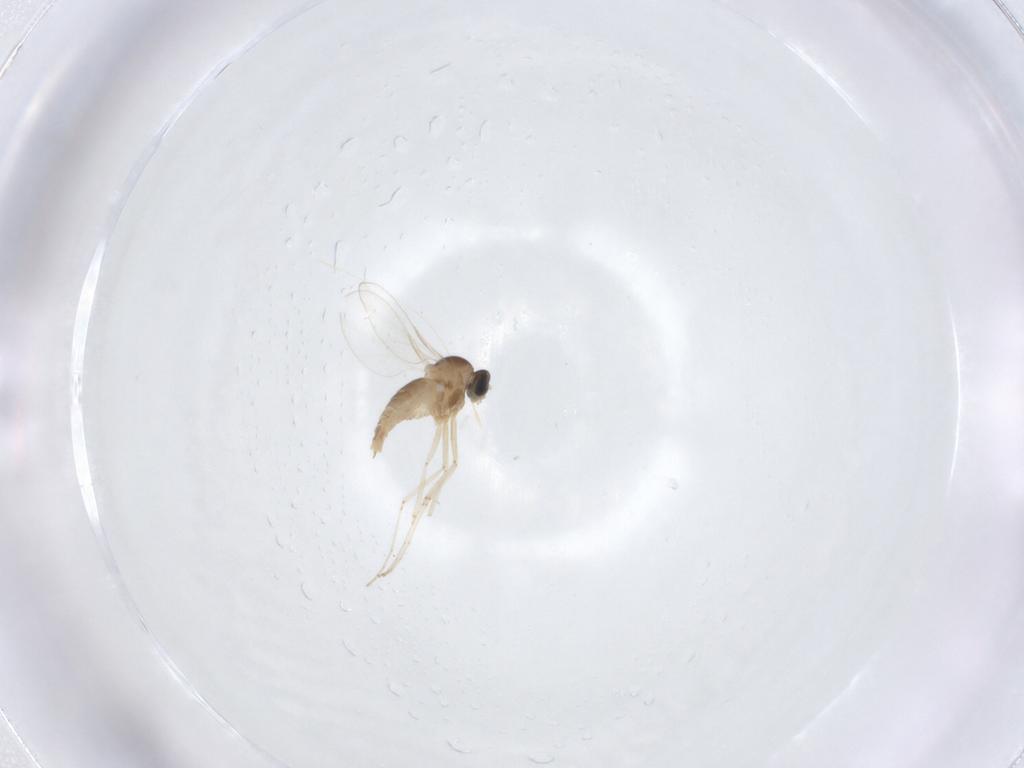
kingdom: Animalia
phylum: Arthropoda
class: Insecta
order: Diptera
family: Cecidomyiidae
